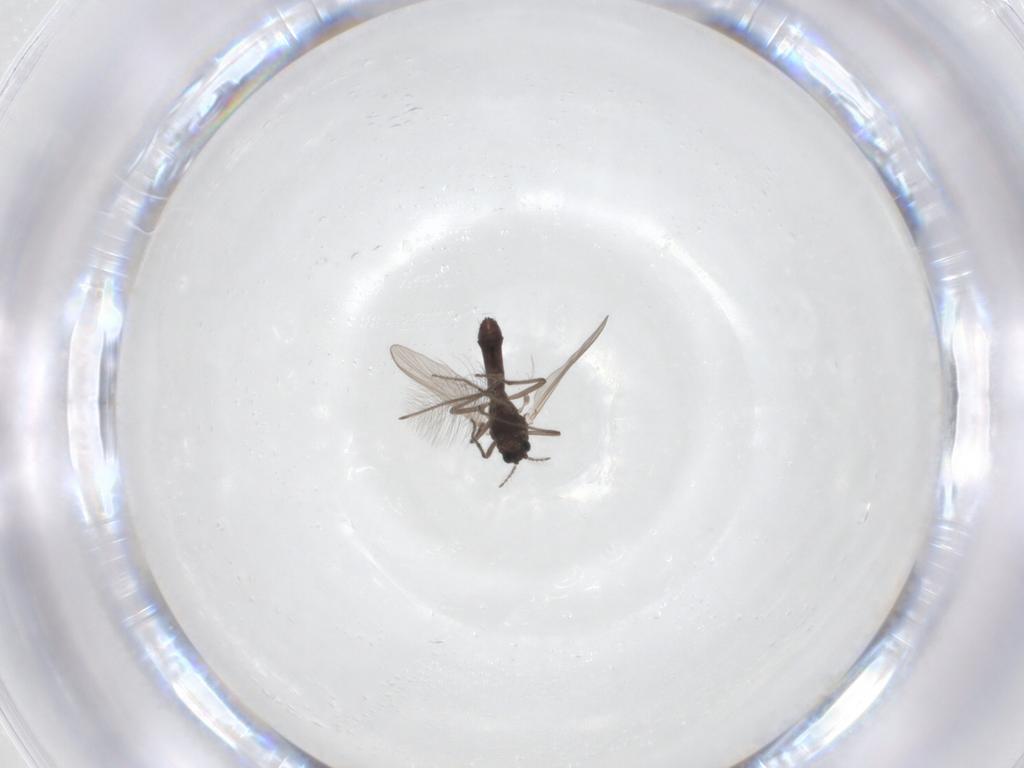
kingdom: Animalia
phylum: Arthropoda
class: Insecta
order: Diptera
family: Chironomidae
